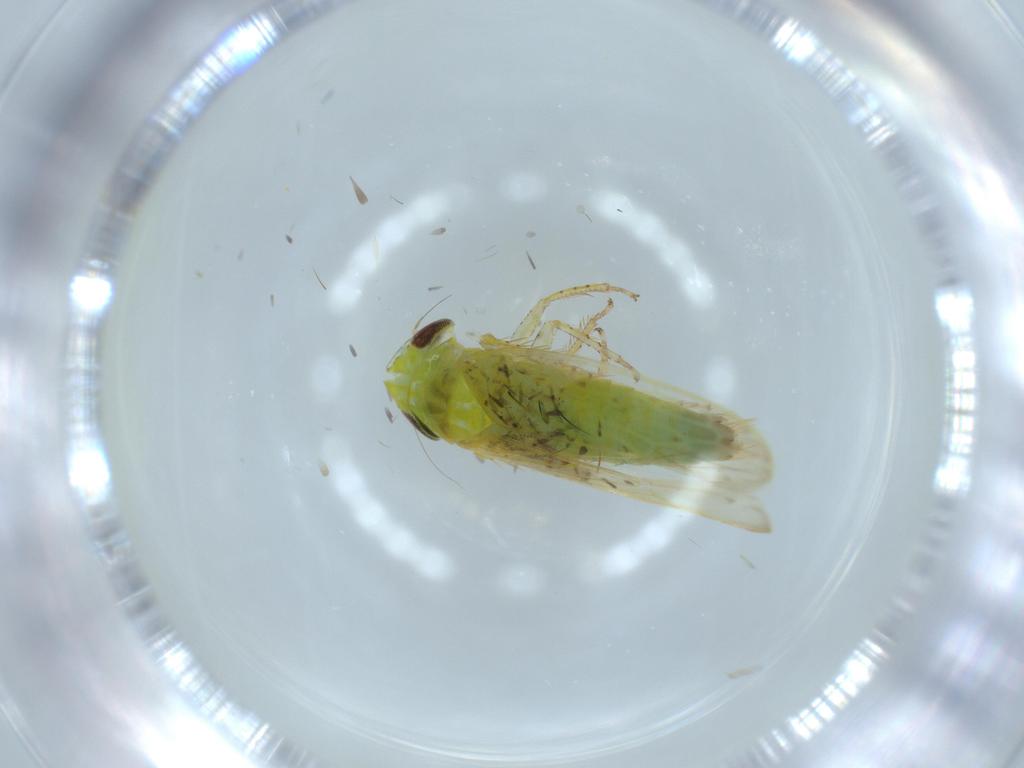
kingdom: Animalia
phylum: Arthropoda
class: Insecta
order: Hemiptera
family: Cicadellidae
